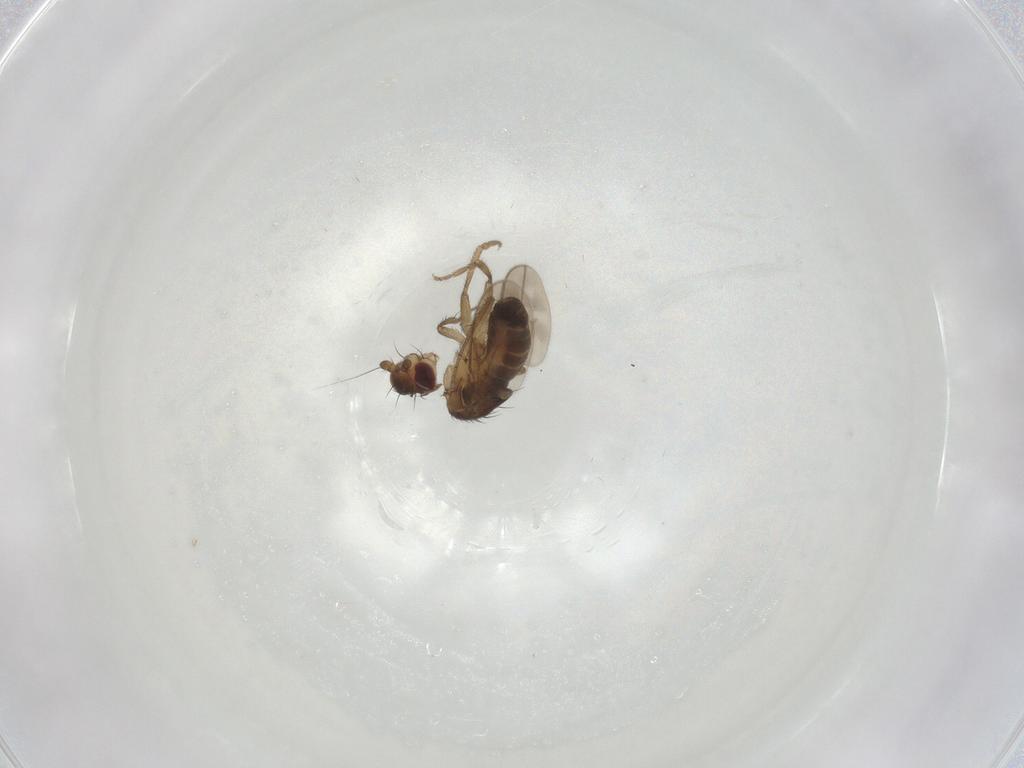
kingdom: Animalia
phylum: Arthropoda
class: Insecta
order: Diptera
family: Sphaeroceridae
